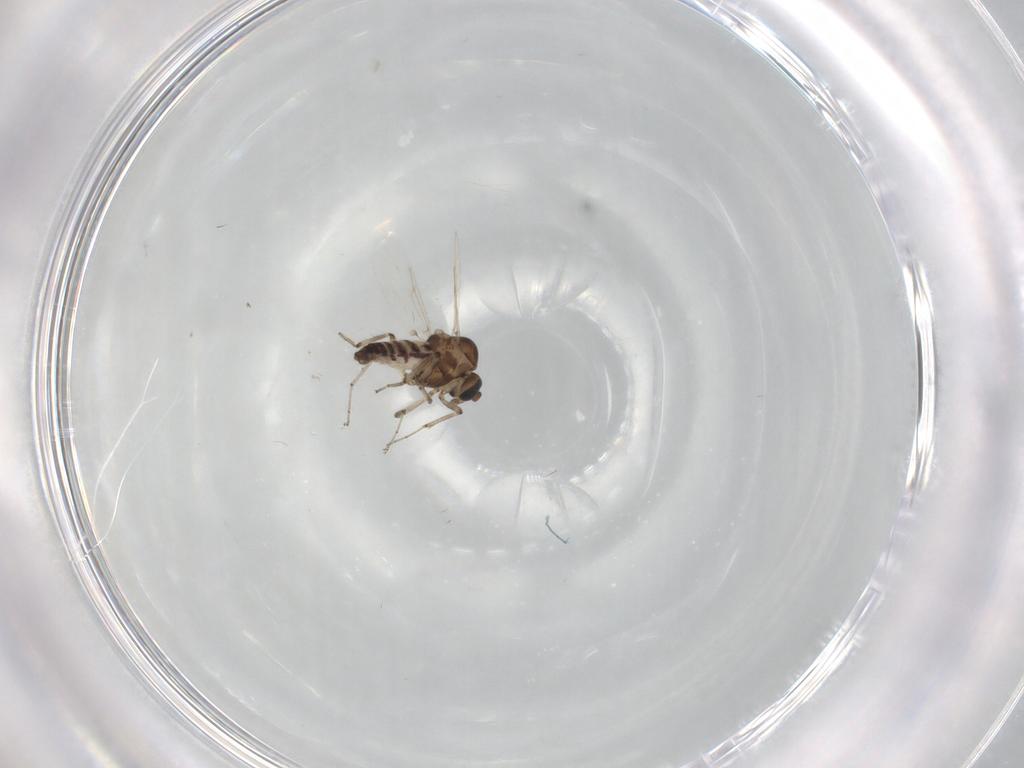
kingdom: Animalia
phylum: Arthropoda
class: Insecta
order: Diptera
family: Ceratopogonidae
